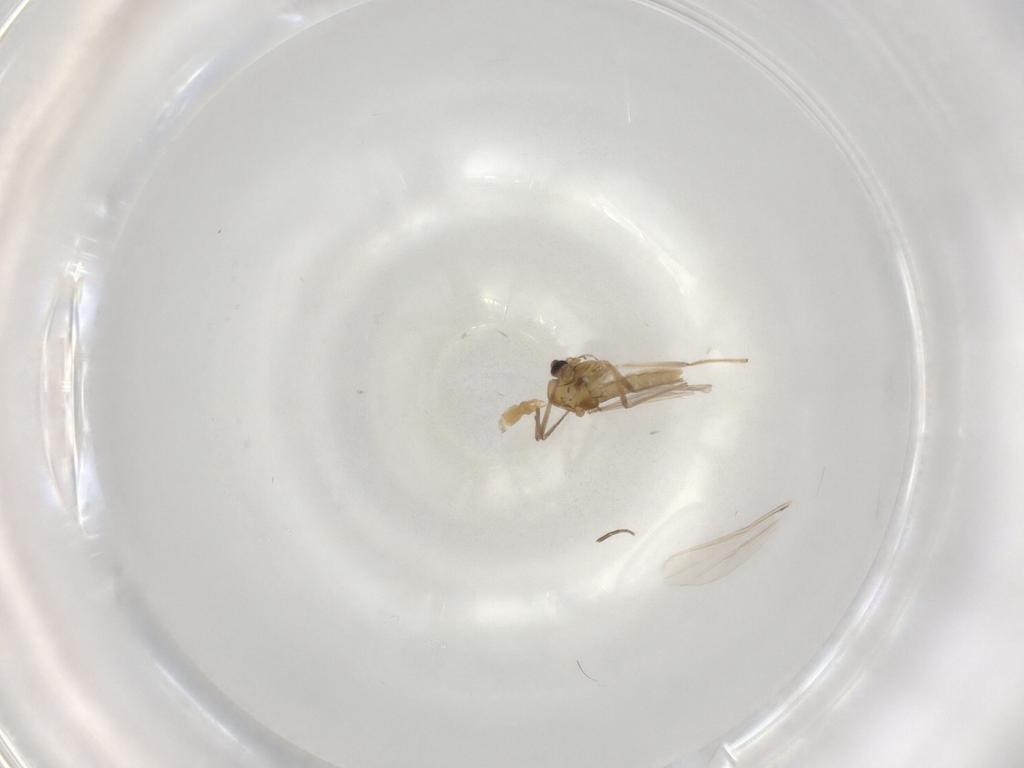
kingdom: Animalia
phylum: Arthropoda
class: Insecta
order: Diptera
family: Chironomidae
